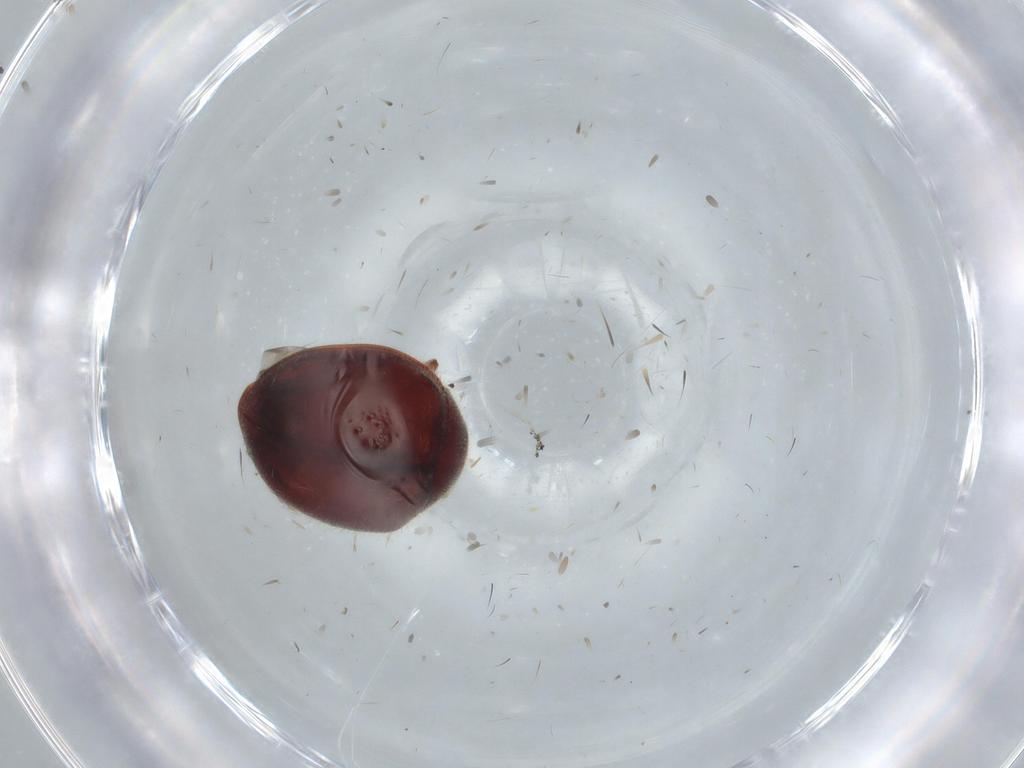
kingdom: Animalia
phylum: Arthropoda
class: Insecta
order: Coleoptera
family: Coccinellidae
